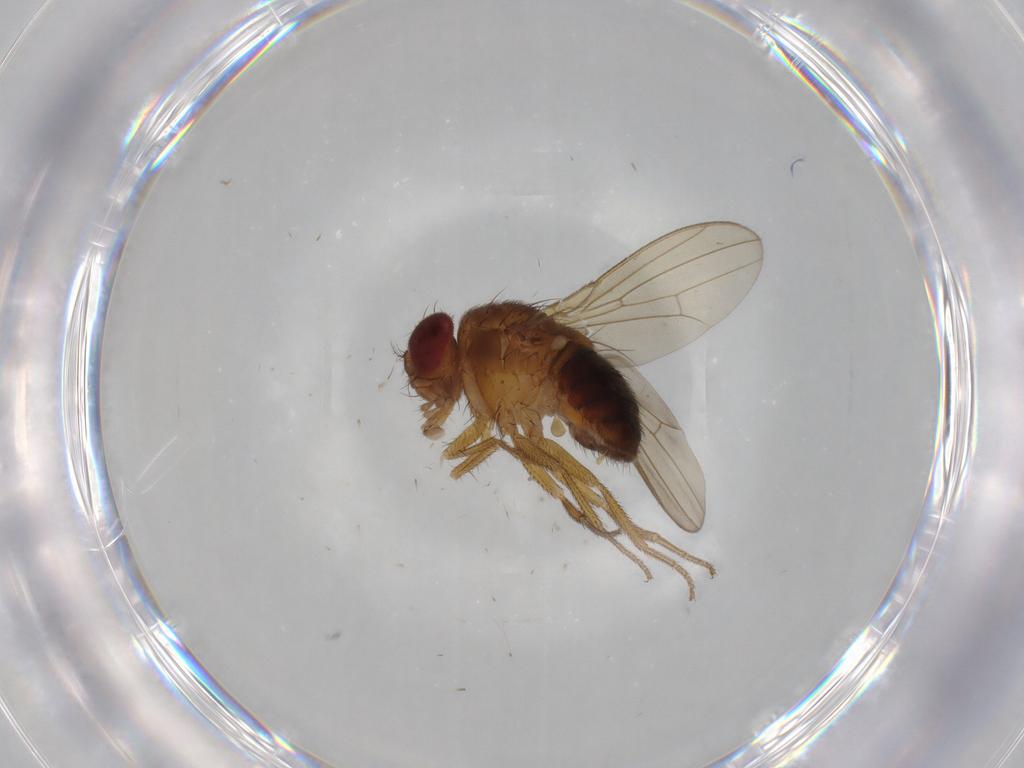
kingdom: Animalia
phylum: Arthropoda
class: Insecta
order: Diptera
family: Drosophilidae
